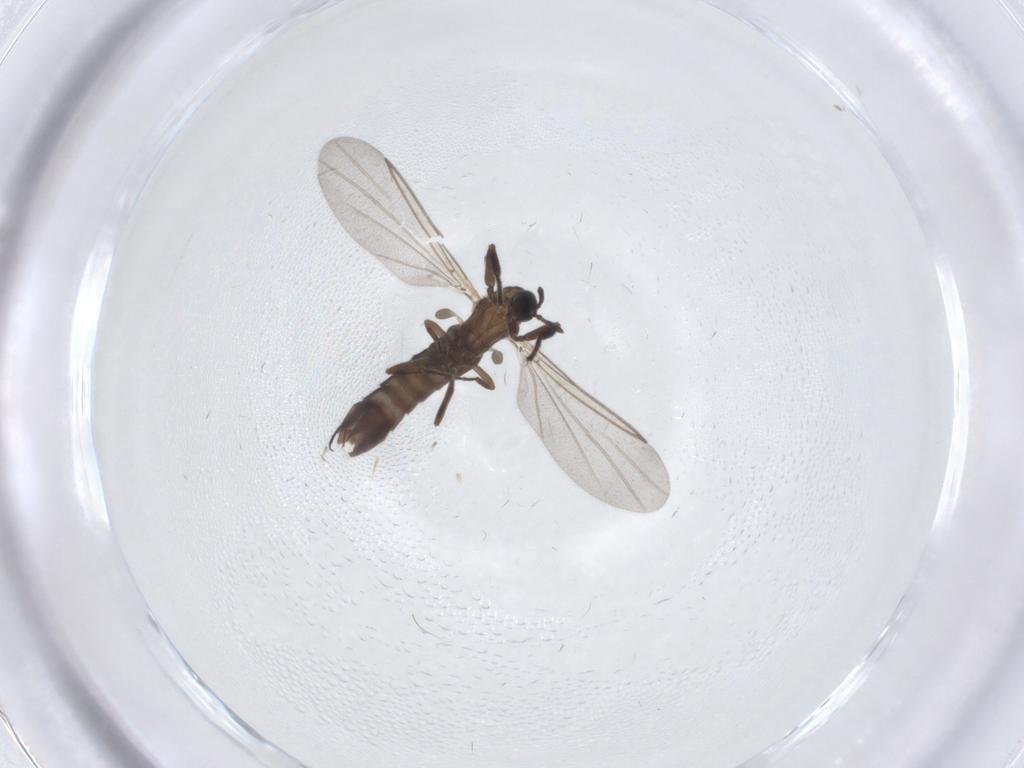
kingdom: Animalia
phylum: Arthropoda
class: Insecta
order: Diptera
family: Scatopsidae
